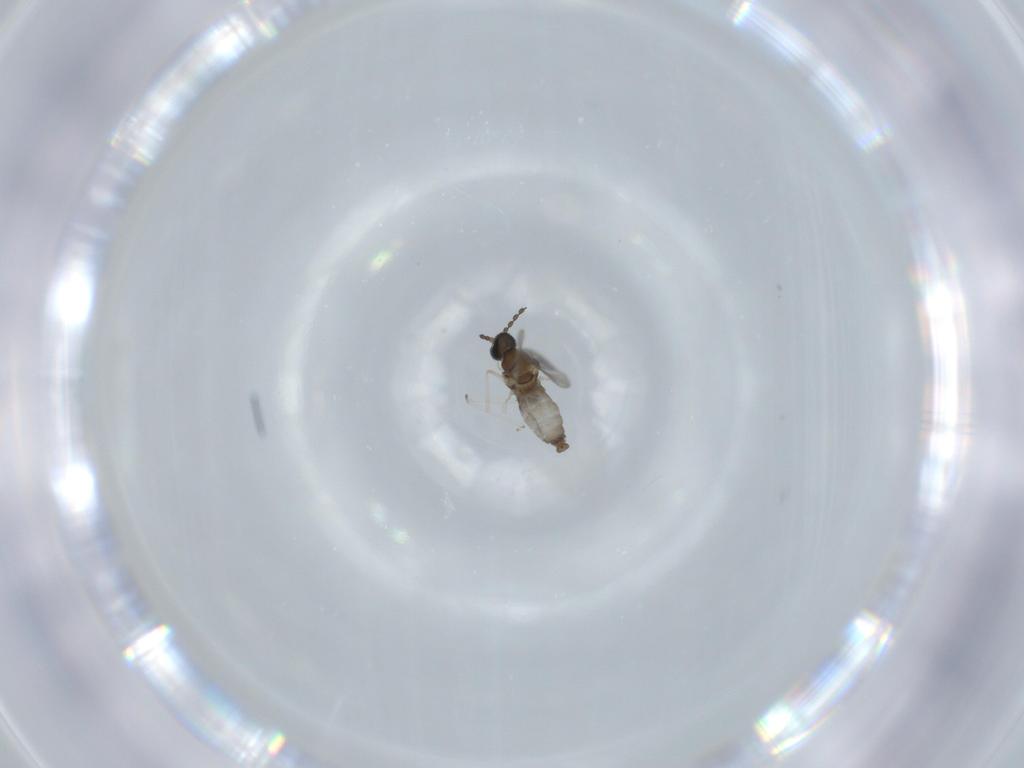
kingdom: Animalia
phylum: Arthropoda
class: Insecta
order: Diptera
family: Cecidomyiidae
